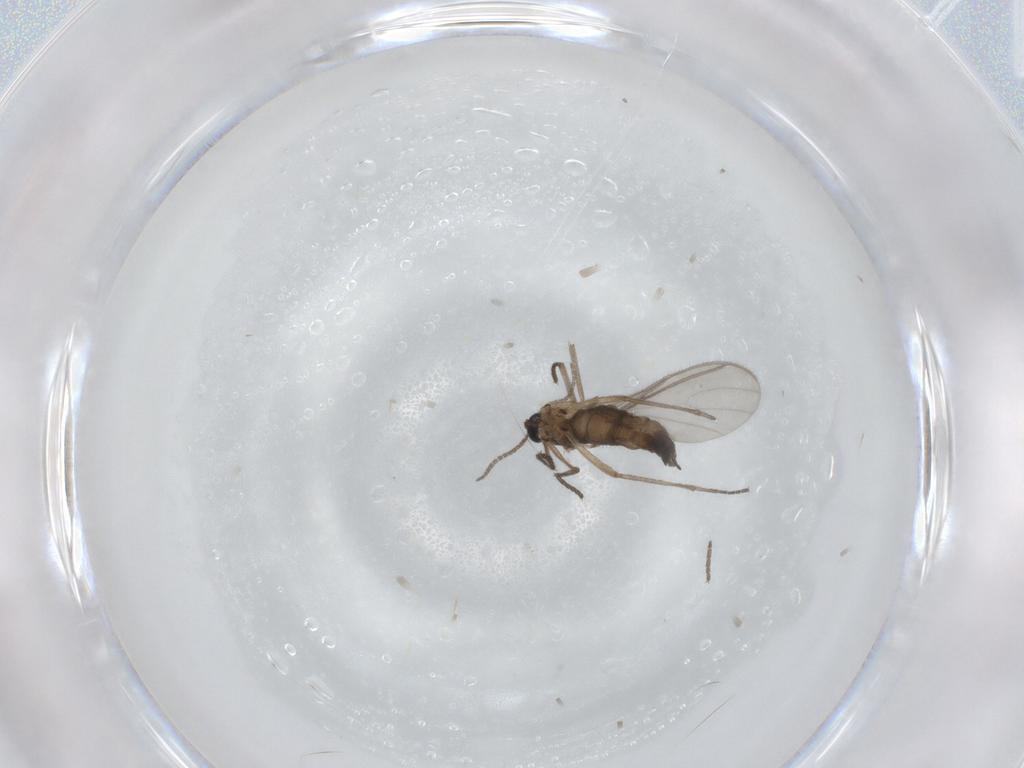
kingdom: Animalia
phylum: Arthropoda
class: Insecta
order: Diptera
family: Sciaridae
